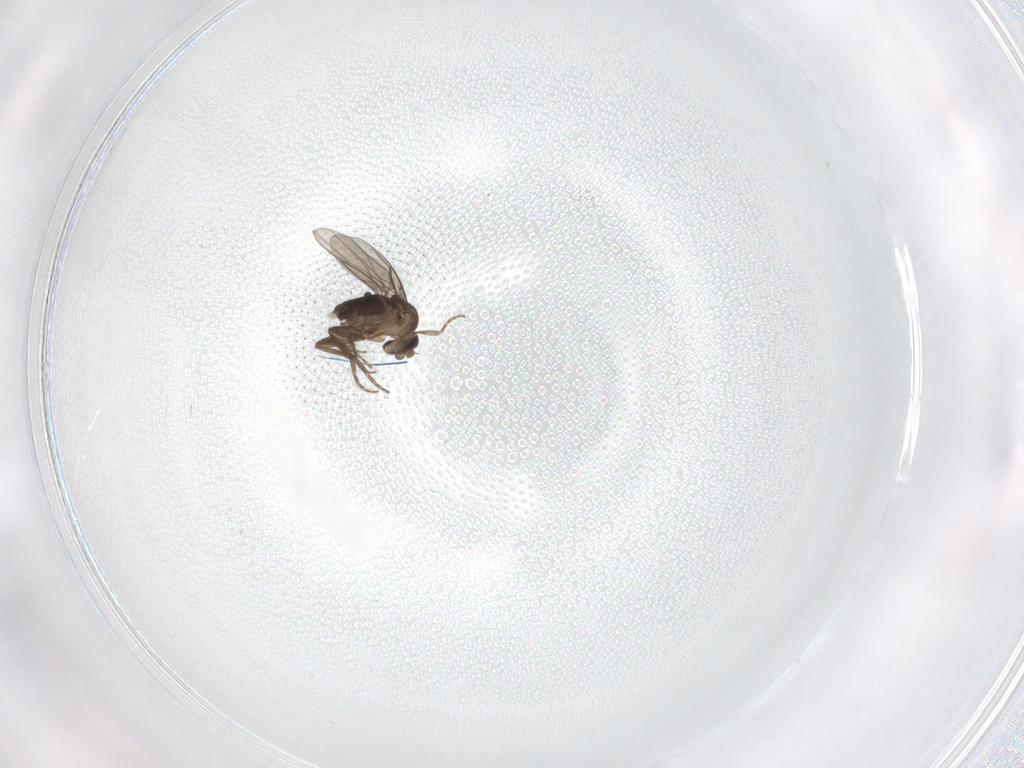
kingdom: Animalia
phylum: Arthropoda
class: Insecta
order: Diptera
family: Phoridae
